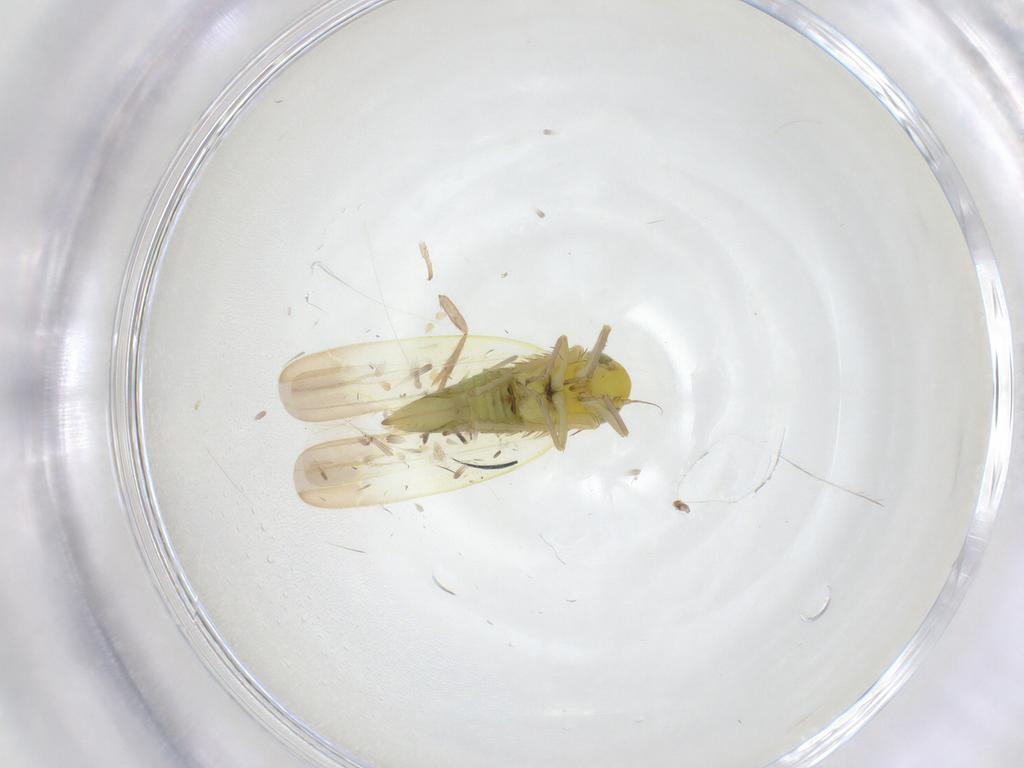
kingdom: Animalia
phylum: Arthropoda
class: Insecta
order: Hemiptera
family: Cicadellidae
